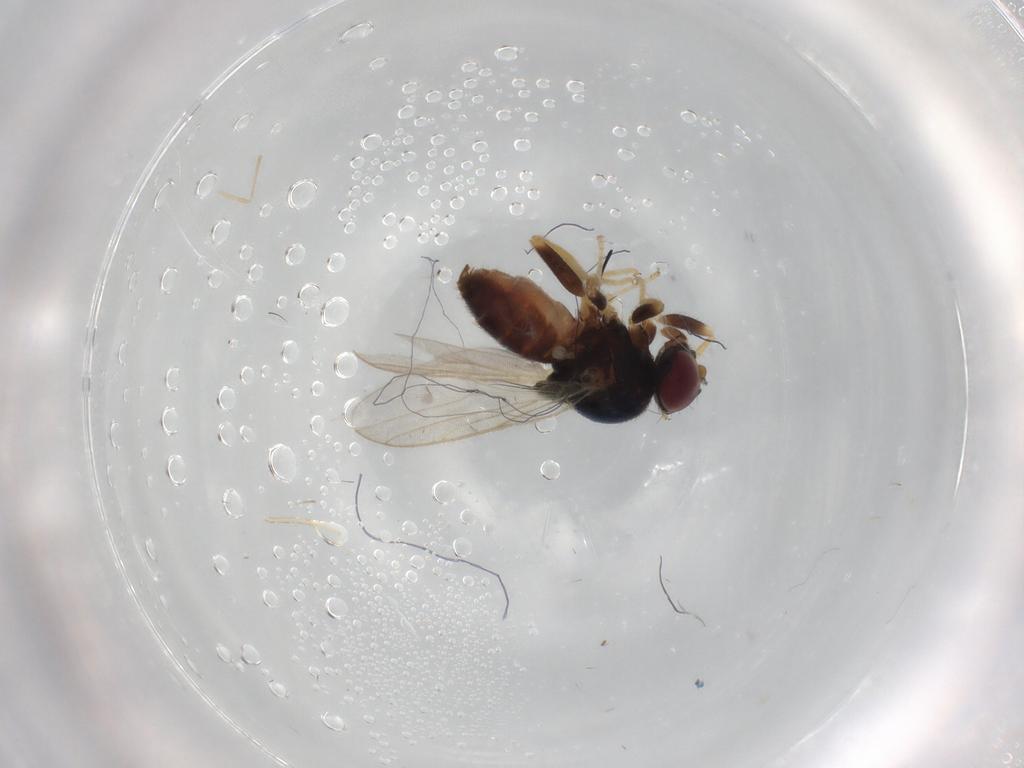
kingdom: Animalia
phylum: Arthropoda
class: Insecta
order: Diptera
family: Chloropidae
